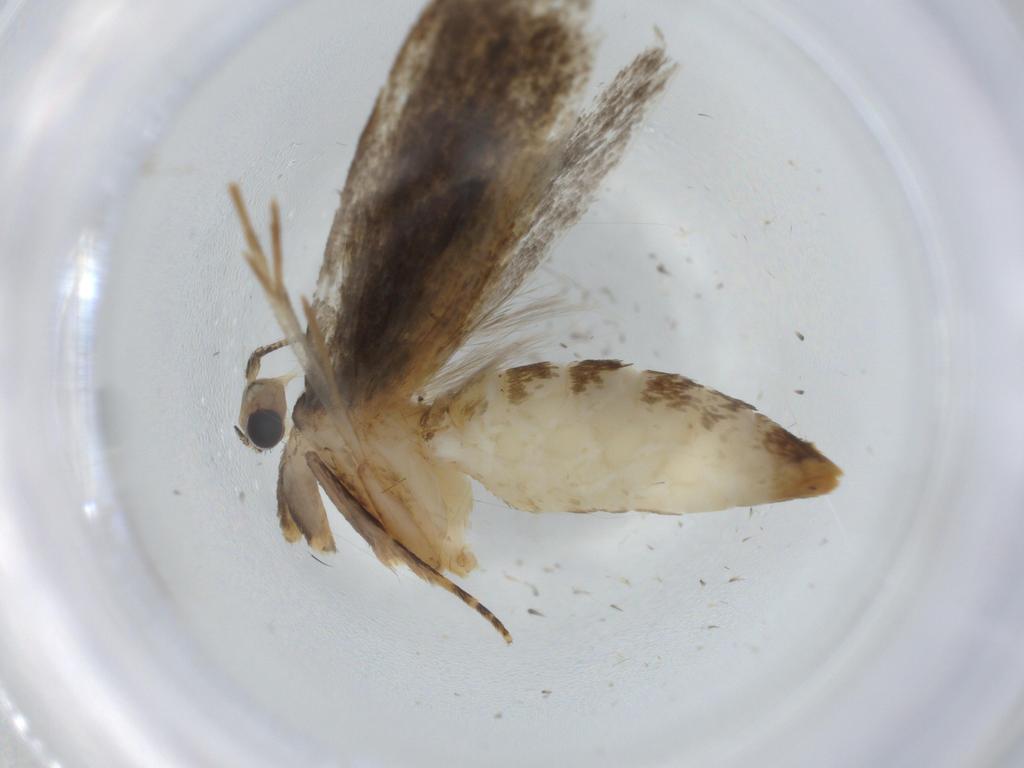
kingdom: Animalia
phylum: Arthropoda
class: Insecta
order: Lepidoptera
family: Tineidae
